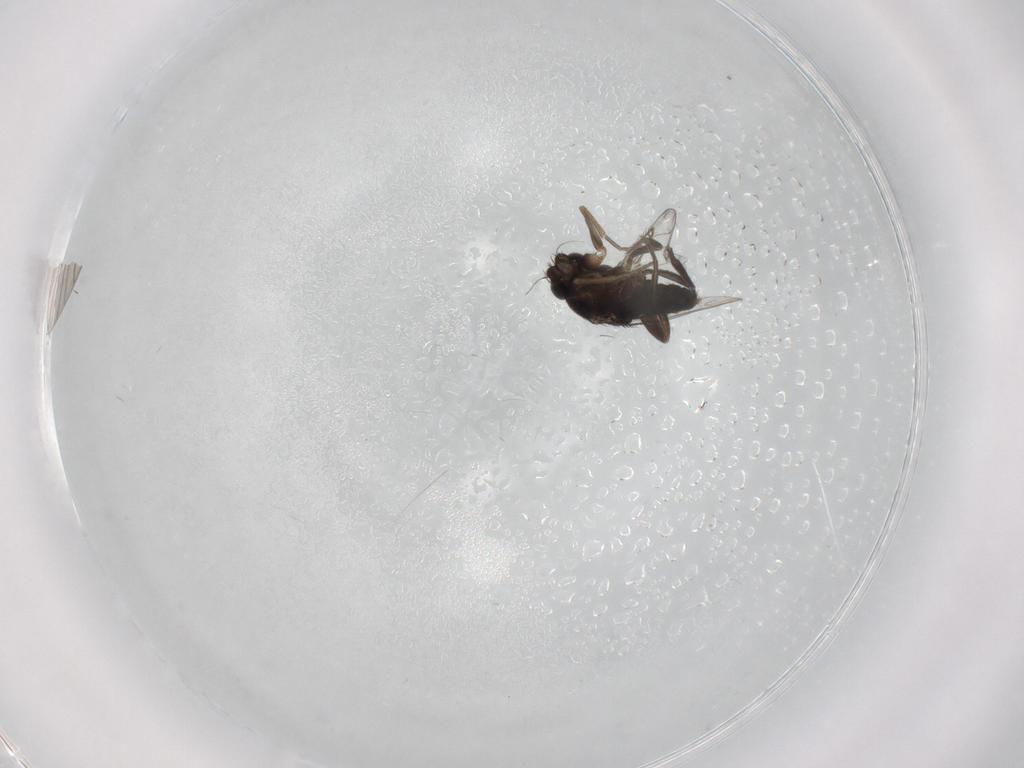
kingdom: Animalia
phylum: Arthropoda
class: Insecta
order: Diptera
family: Phoridae
